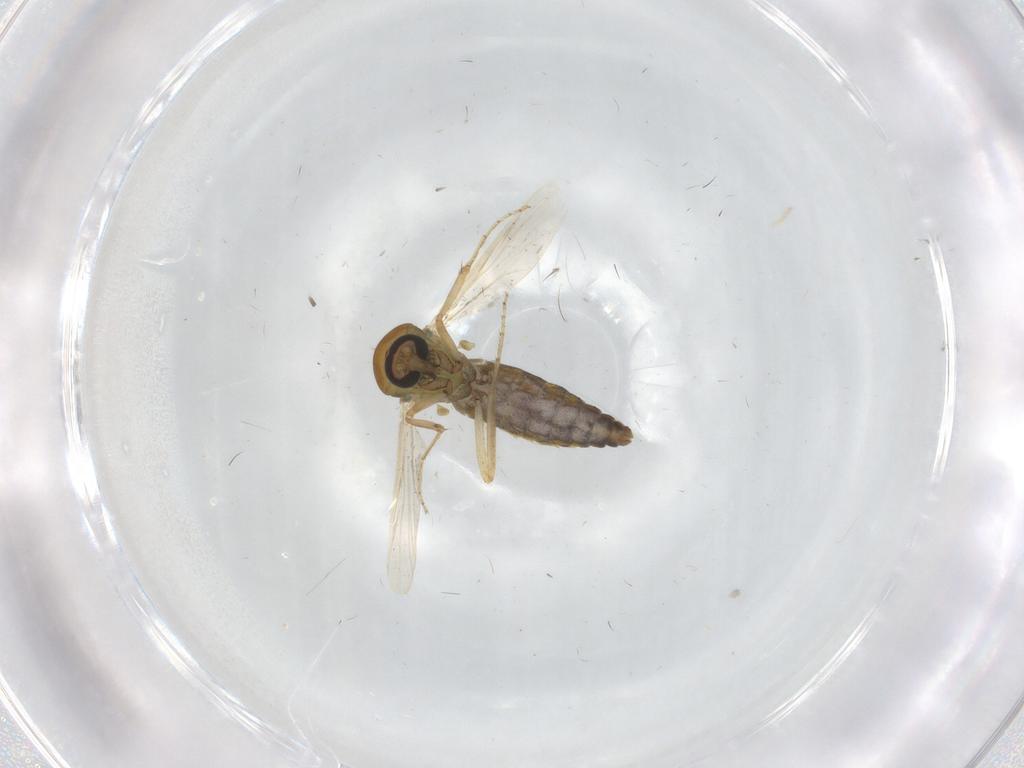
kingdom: Animalia
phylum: Arthropoda
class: Insecta
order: Diptera
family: Ceratopogonidae
